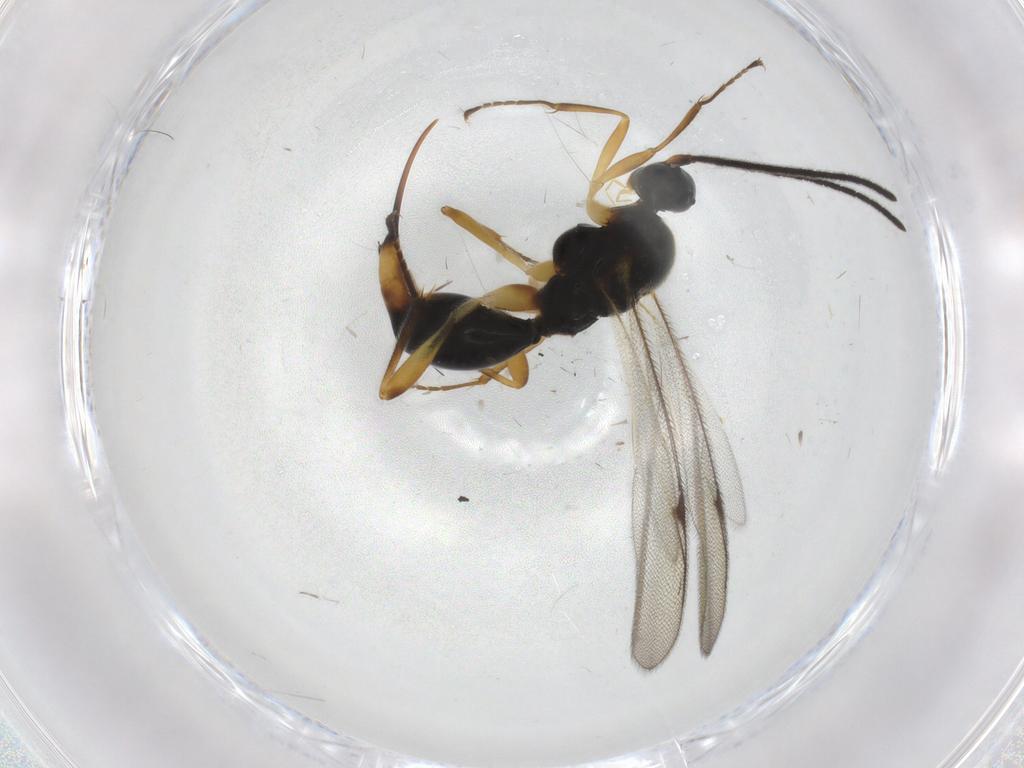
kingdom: Animalia
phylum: Arthropoda
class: Insecta
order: Hymenoptera
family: Proctotrupidae
